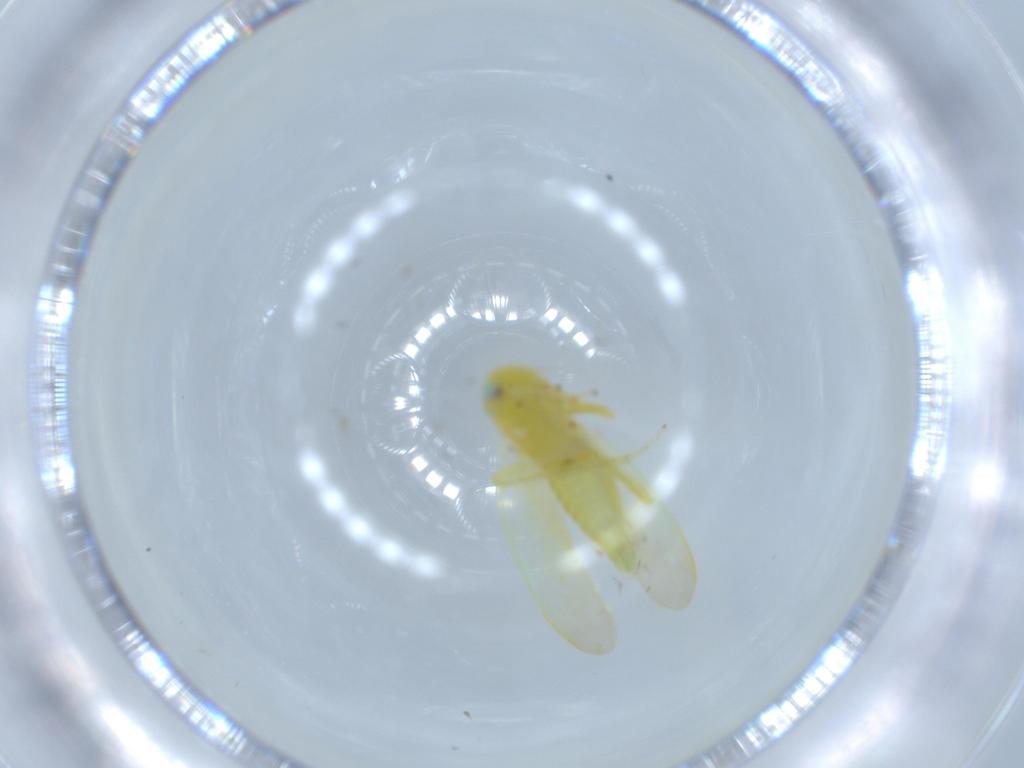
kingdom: Animalia
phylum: Arthropoda
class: Insecta
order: Hemiptera
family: Cicadellidae
